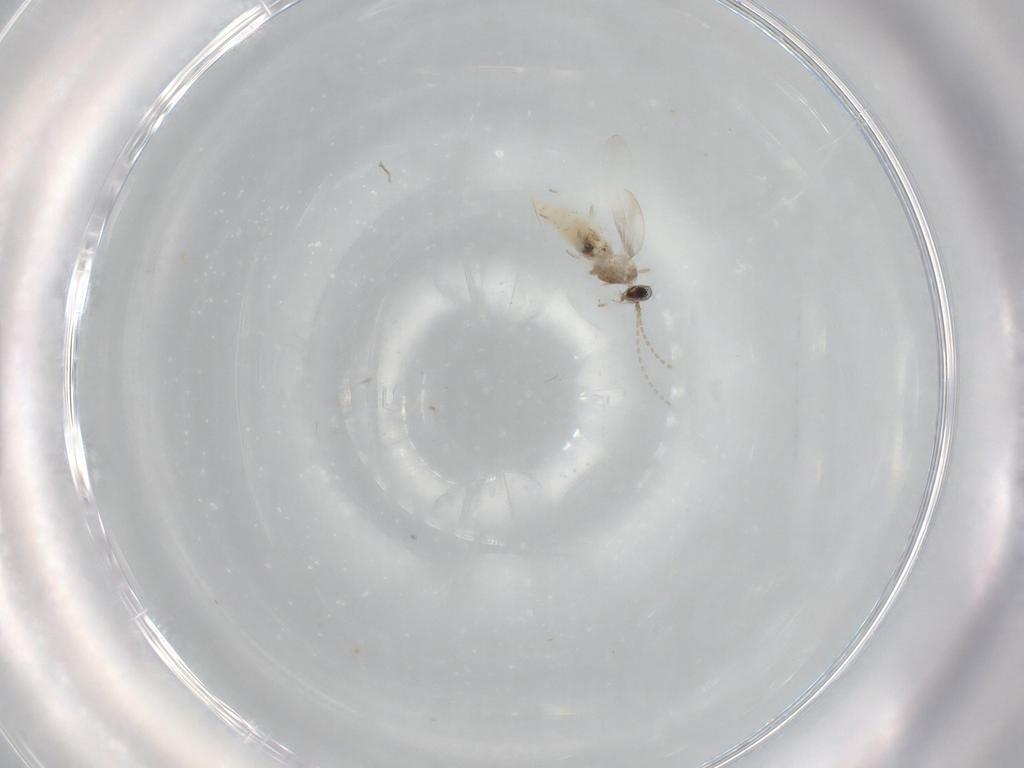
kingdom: Animalia
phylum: Arthropoda
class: Insecta
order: Diptera
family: Ceratopogonidae
